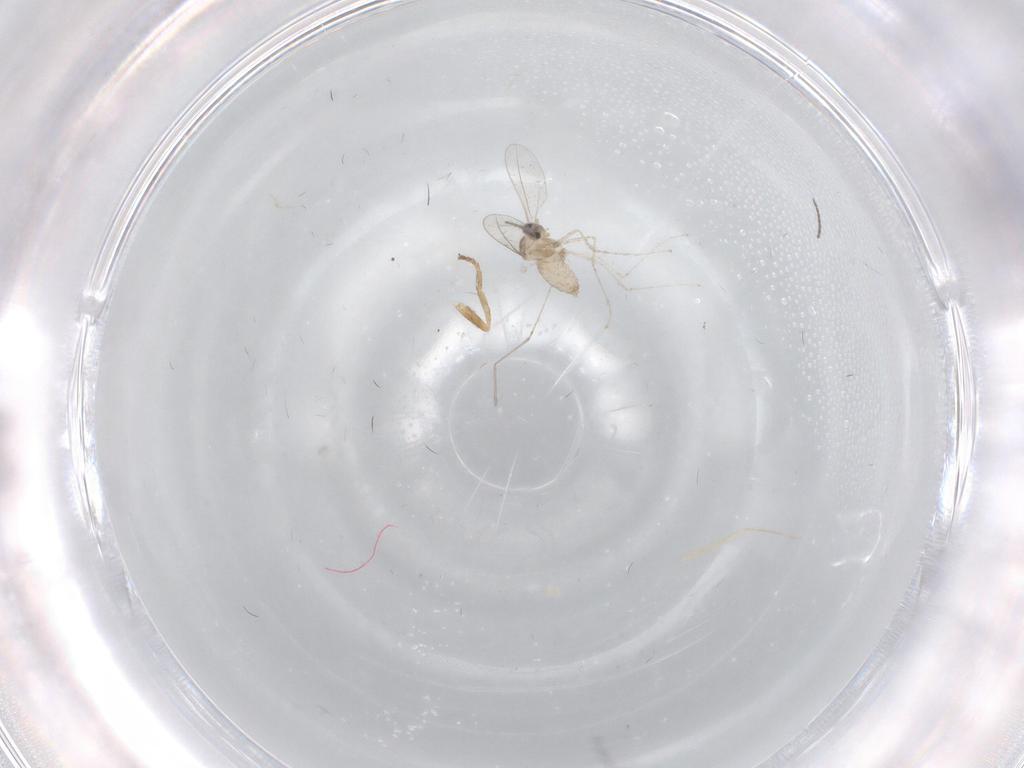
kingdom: Animalia
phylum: Arthropoda
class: Insecta
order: Diptera
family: Cecidomyiidae
